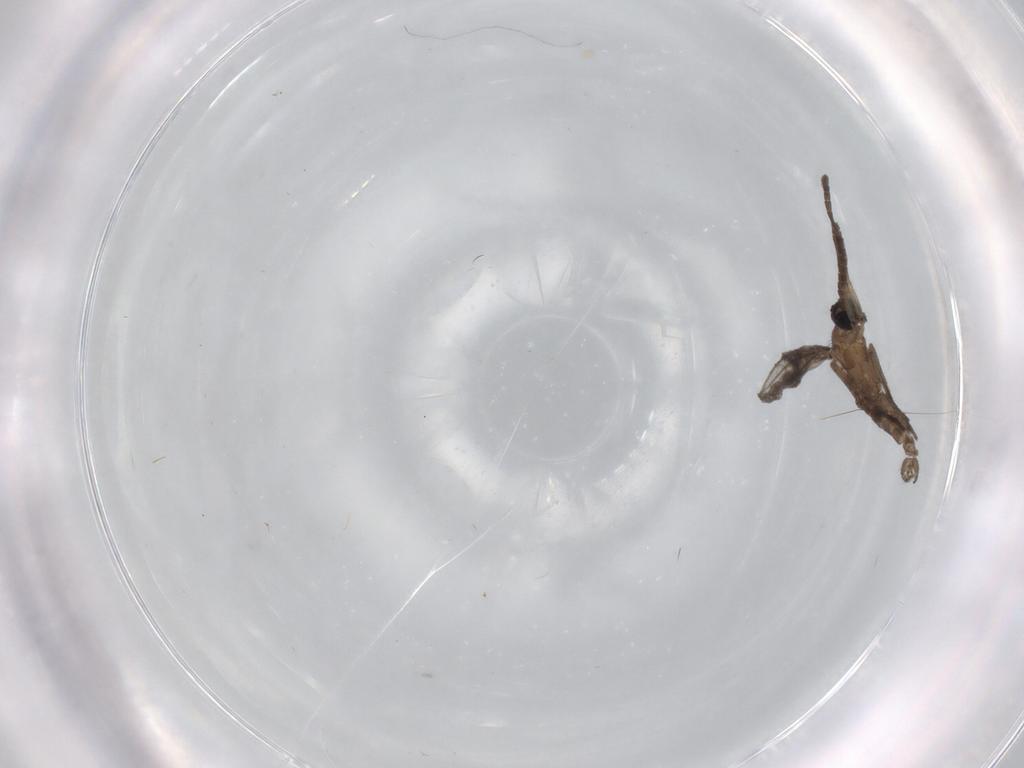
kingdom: Animalia
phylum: Arthropoda
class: Insecta
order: Diptera
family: Sciaridae
